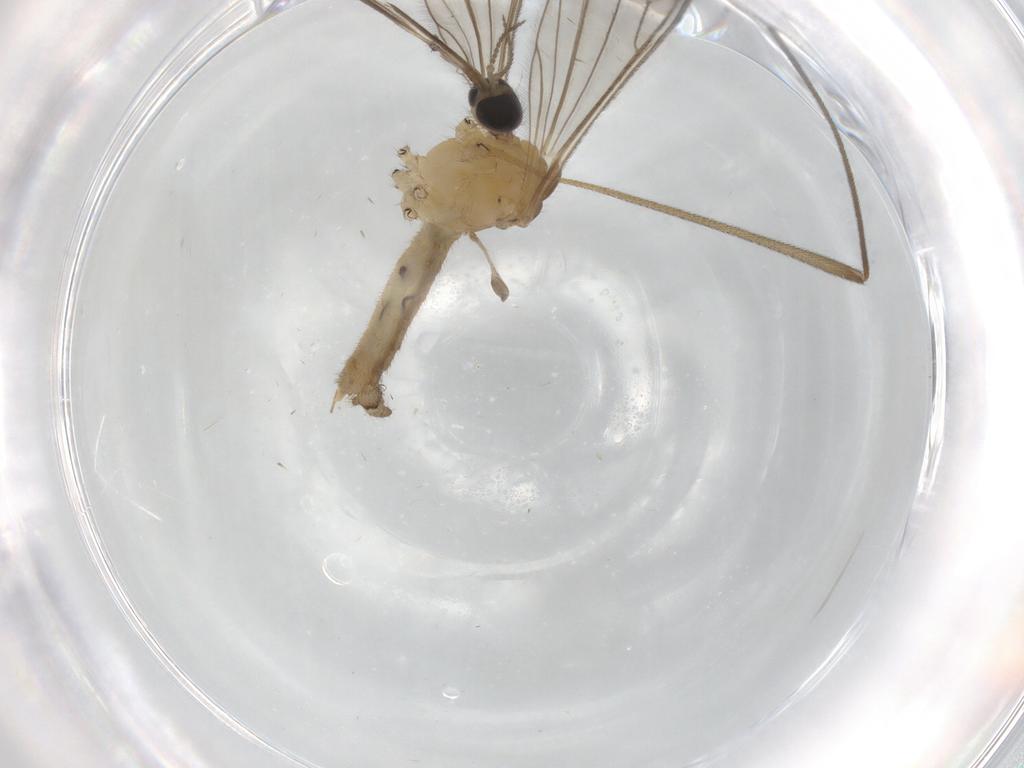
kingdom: Animalia
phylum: Arthropoda
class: Insecta
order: Diptera
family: Limoniidae
